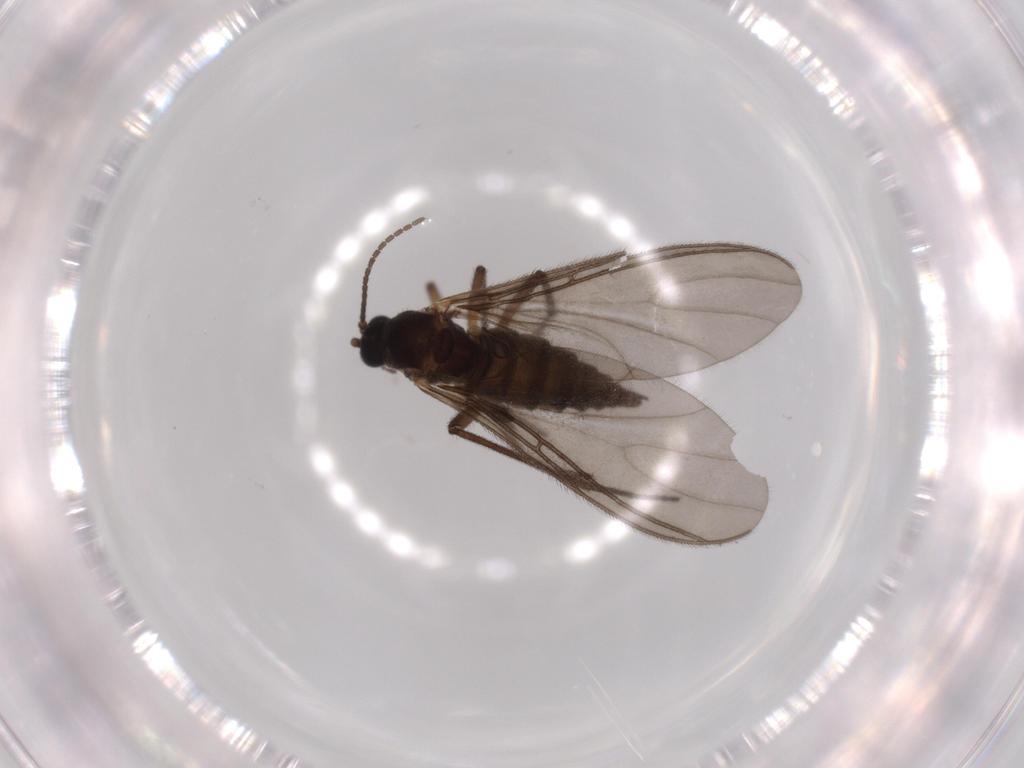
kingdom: Animalia
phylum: Arthropoda
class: Insecta
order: Diptera
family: Sciaridae
